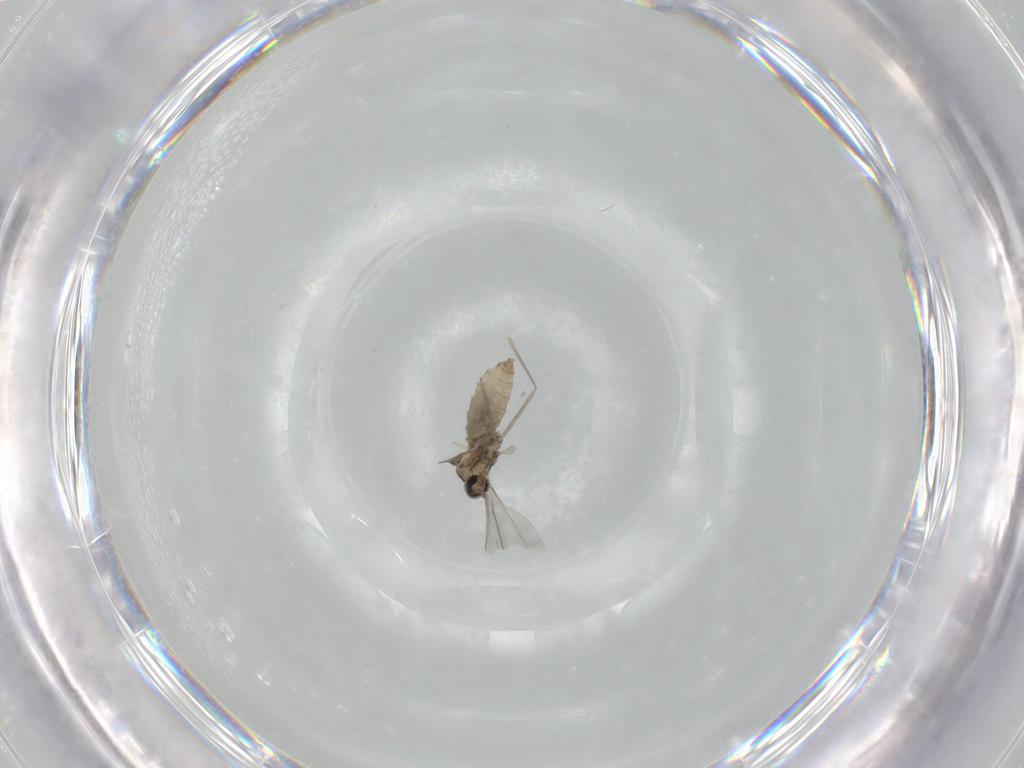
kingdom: Animalia
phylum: Arthropoda
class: Insecta
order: Diptera
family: Cecidomyiidae
